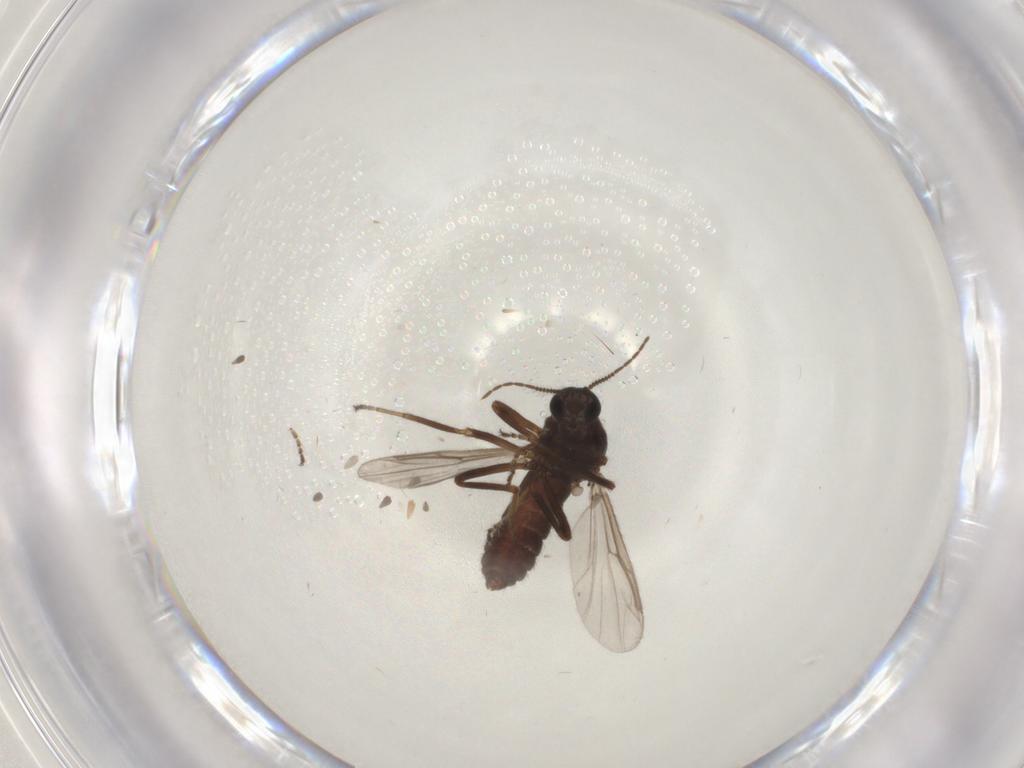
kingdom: Animalia
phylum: Arthropoda
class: Insecta
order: Diptera
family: Ceratopogonidae
